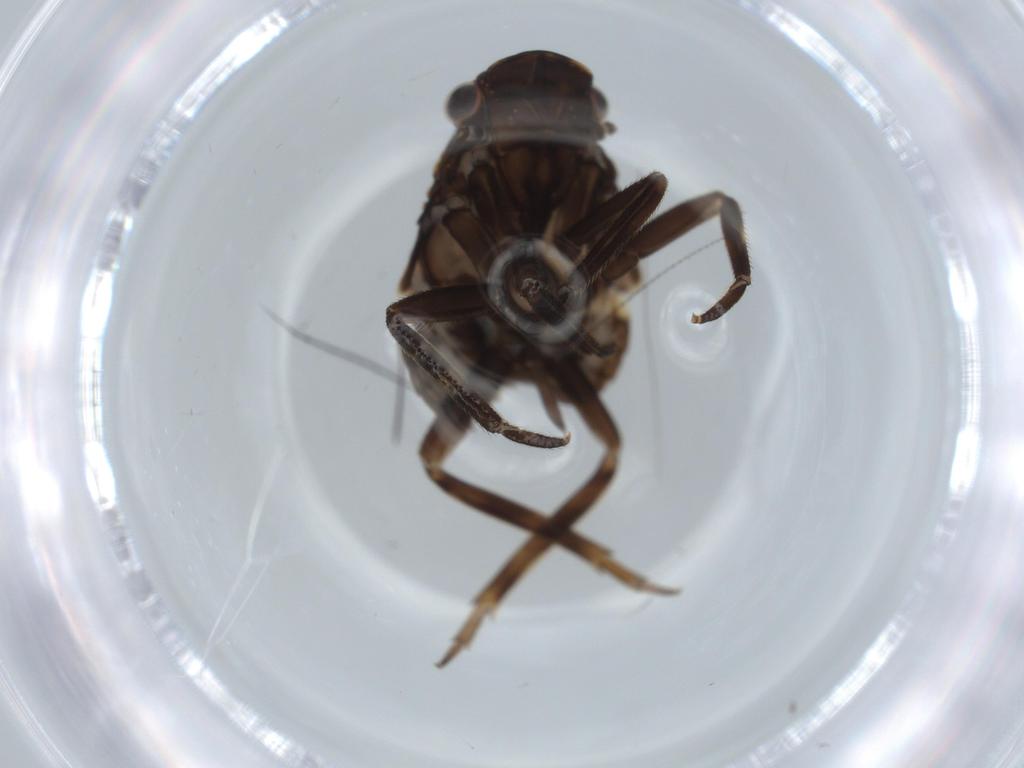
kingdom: Animalia
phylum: Arthropoda
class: Insecta
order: Hemiptera
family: Fulgoridae
